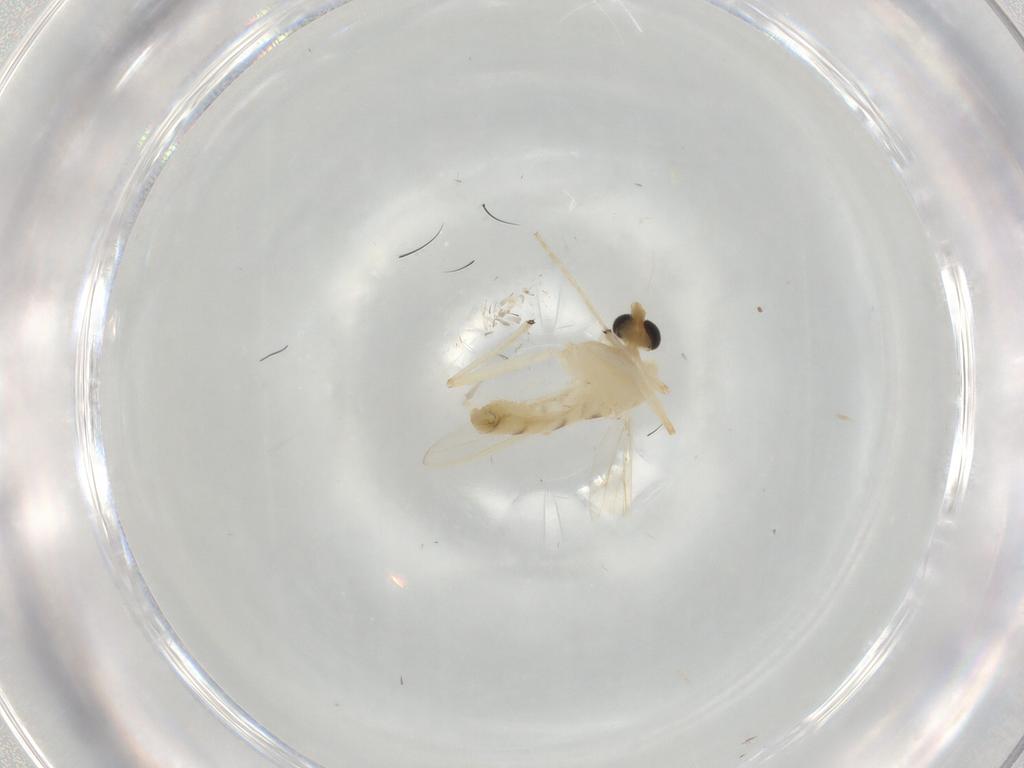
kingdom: Animalia
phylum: Arthropoda
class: Insecta
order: Diptera
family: Chironomidae
